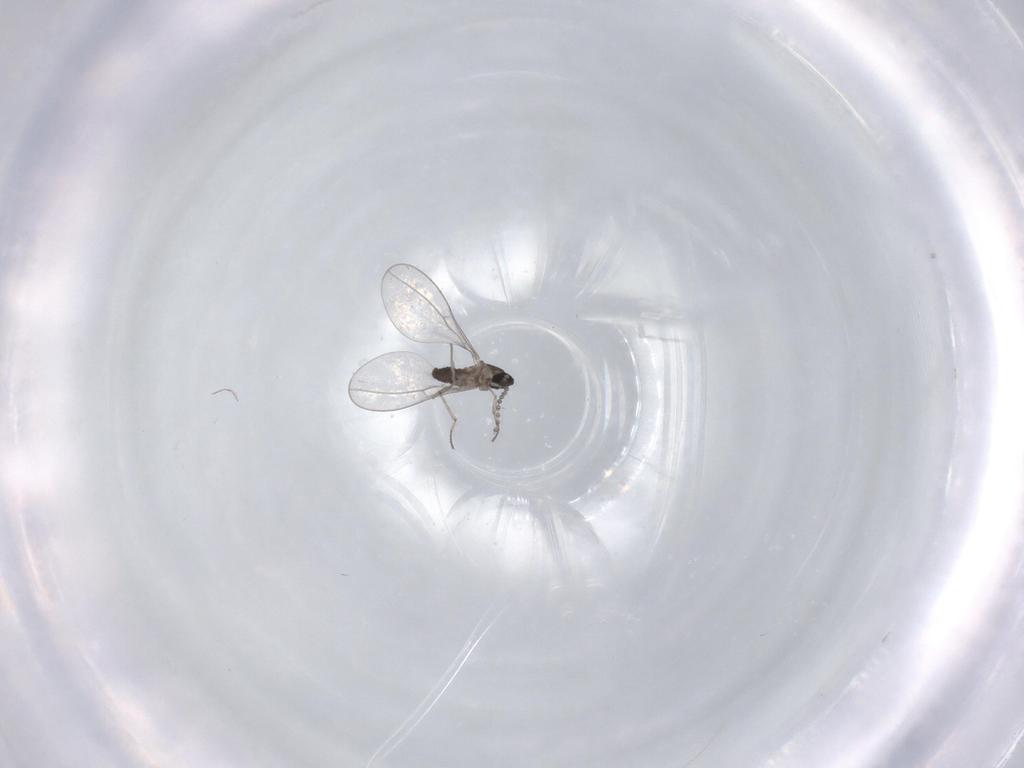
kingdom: Animalia
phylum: Arthropoda
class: Insecta
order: Diptera
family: Cecidomyiidae
